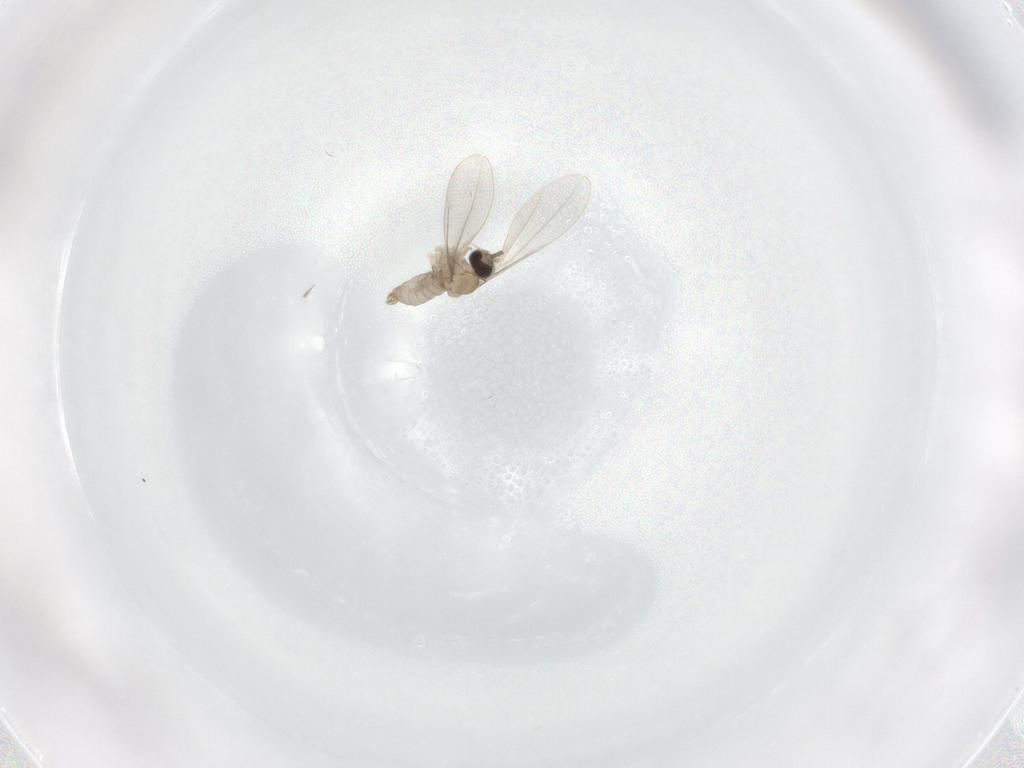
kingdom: Animalia
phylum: Arthropoda
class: Insecta
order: Diptera
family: Cecidomyiidae
